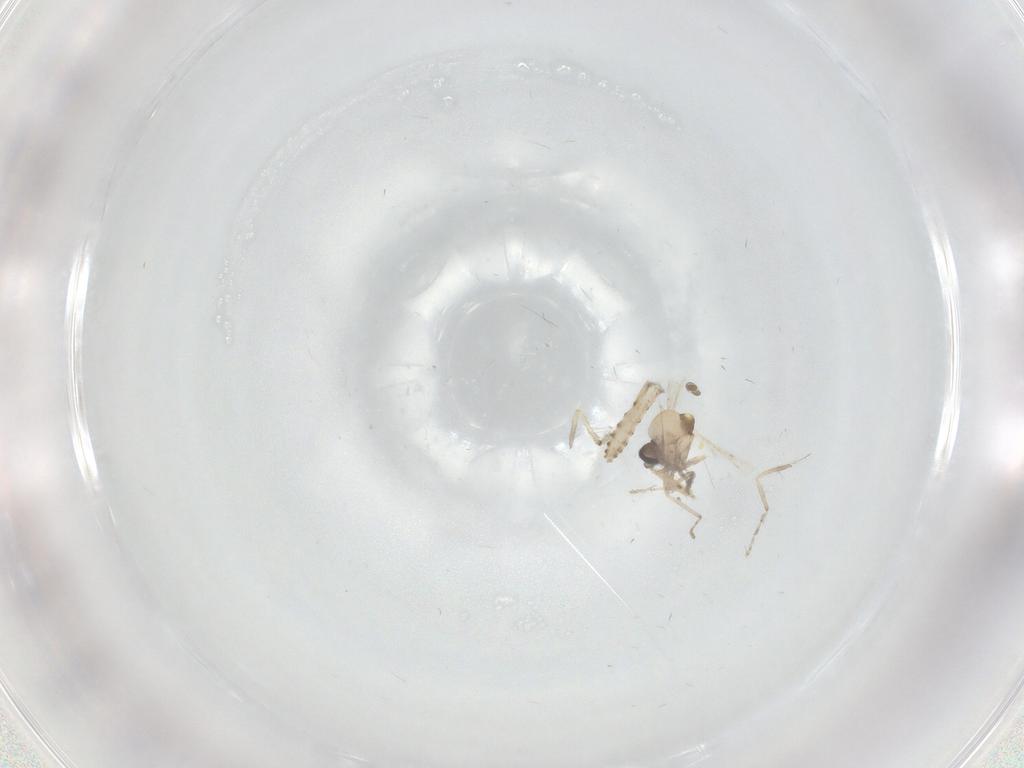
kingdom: Animalia
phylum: Arthropoda
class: Insecta
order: Diptera
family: Ceratopogonidae
